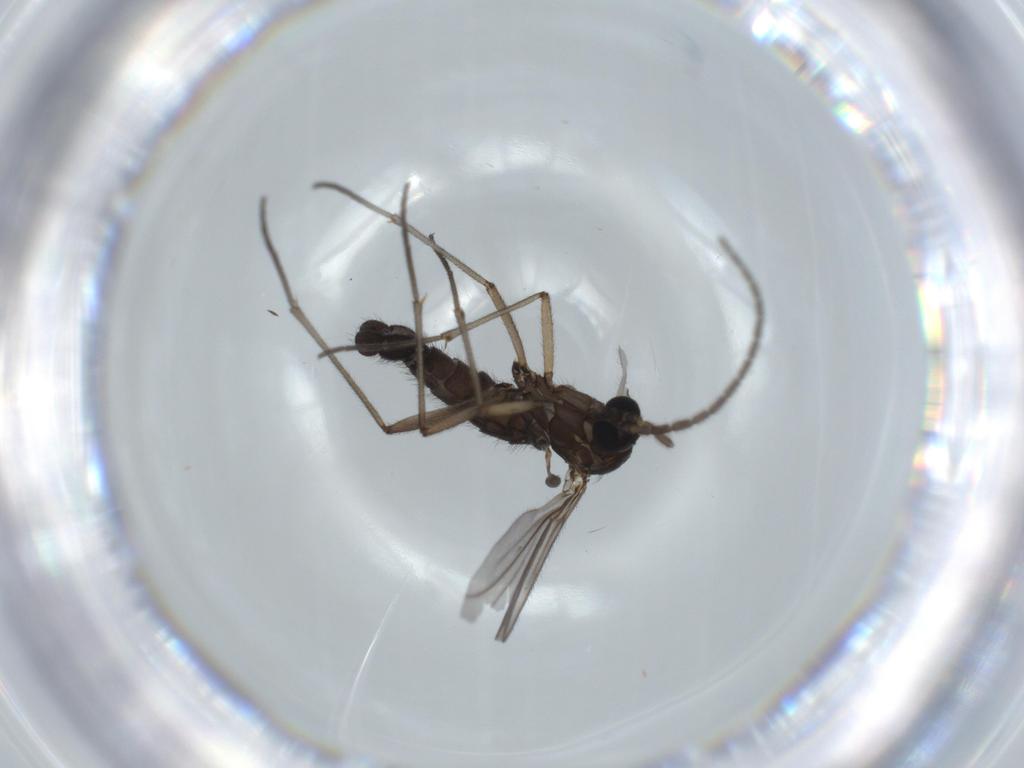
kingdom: Animalia
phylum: Arthropoda
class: Insecta
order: Diptera
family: Sciaridae
